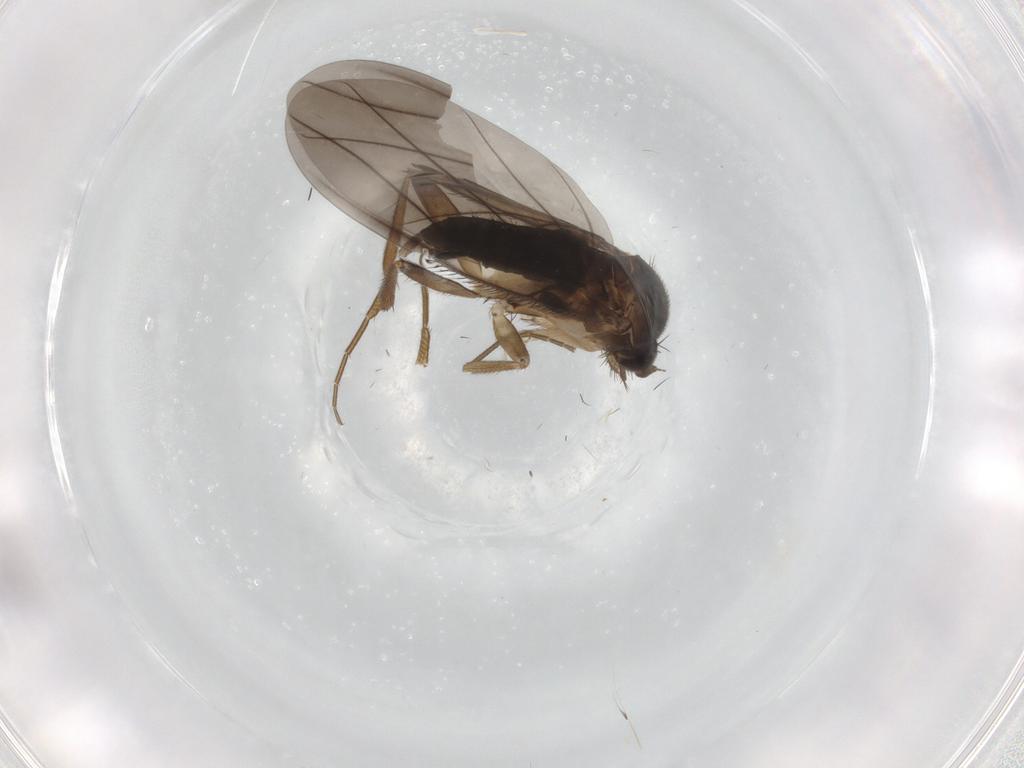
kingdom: Animalia
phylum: Arthropoda
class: Insecta
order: Diptera
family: Phoridae
